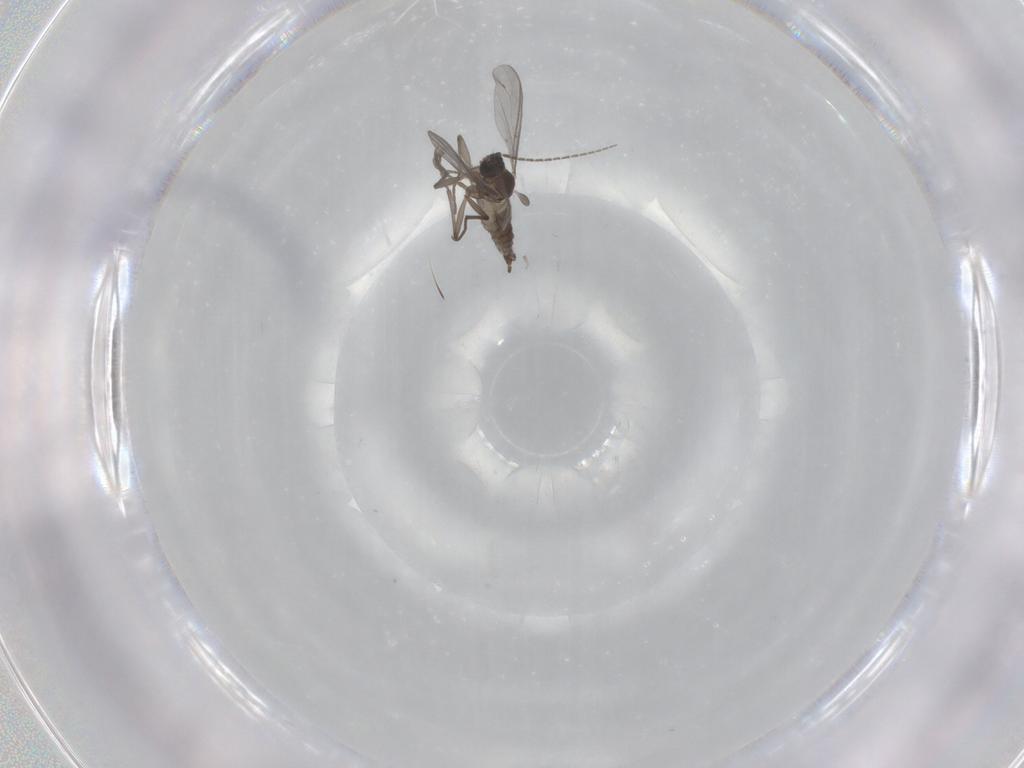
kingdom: Animalia
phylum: Arthropoda
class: Insecta
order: Diptera
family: Sciaridae
